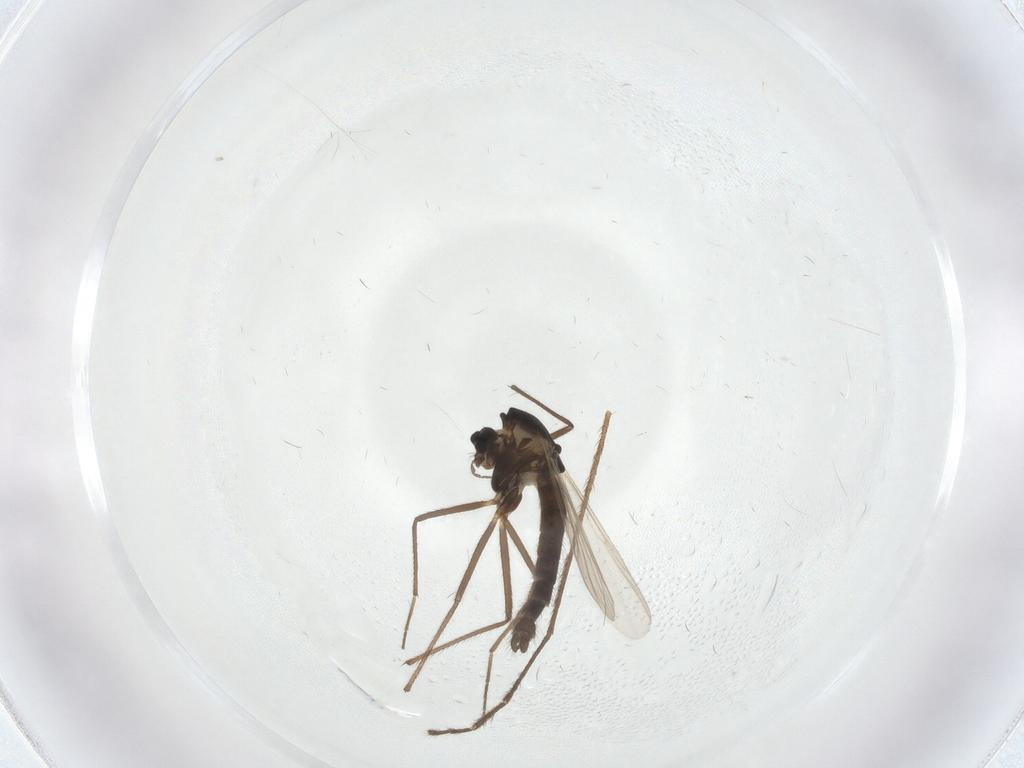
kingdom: Animalia
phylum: Arthropoda
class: Insecta
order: Diptera
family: Chironomidae
